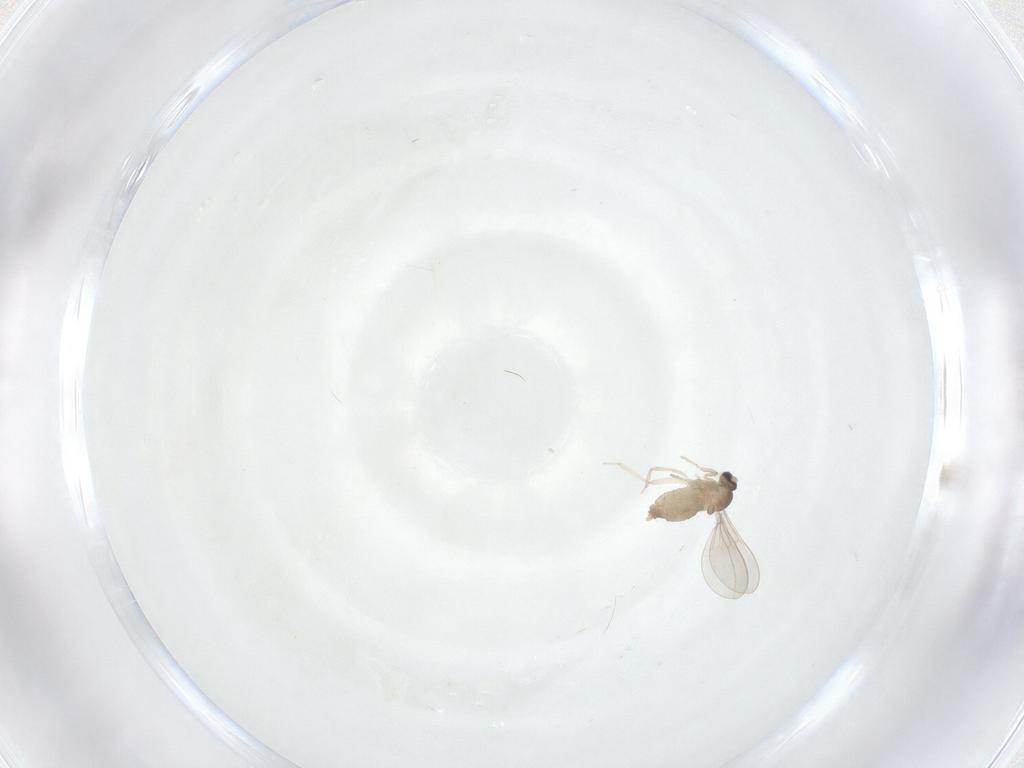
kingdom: Animalia
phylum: Arthropoda
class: Insecta
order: Diptera
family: Cecidomyiidae
